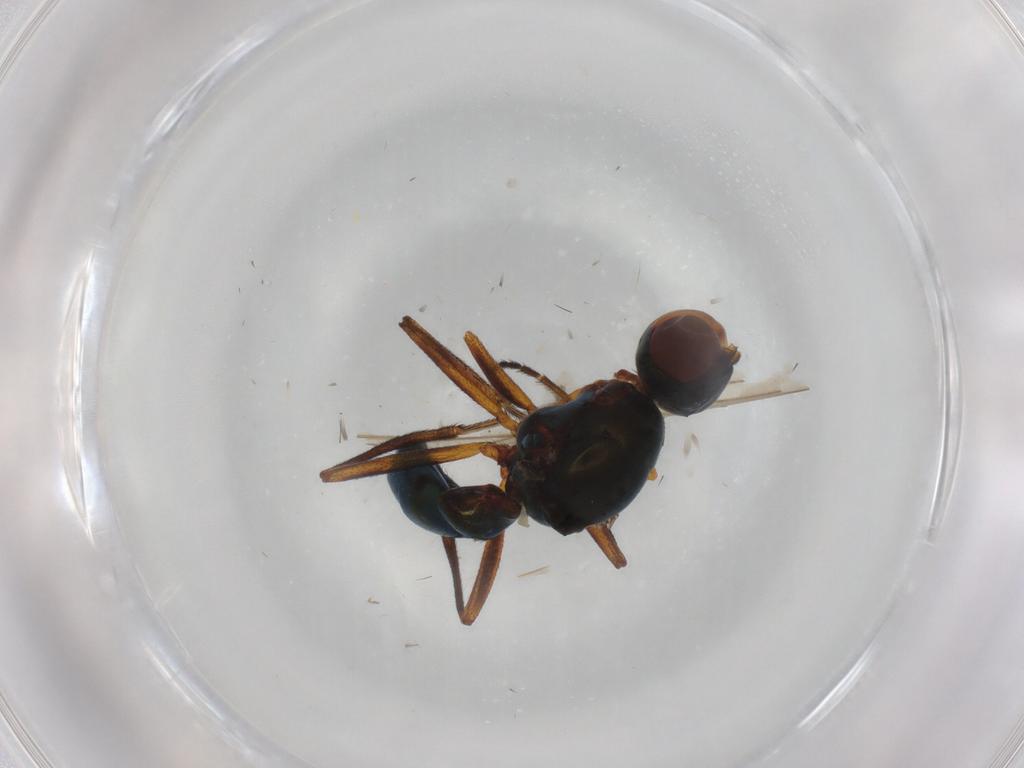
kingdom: Animalia
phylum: Arthropoda
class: Insecta
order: Diptera
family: Sepsidae
